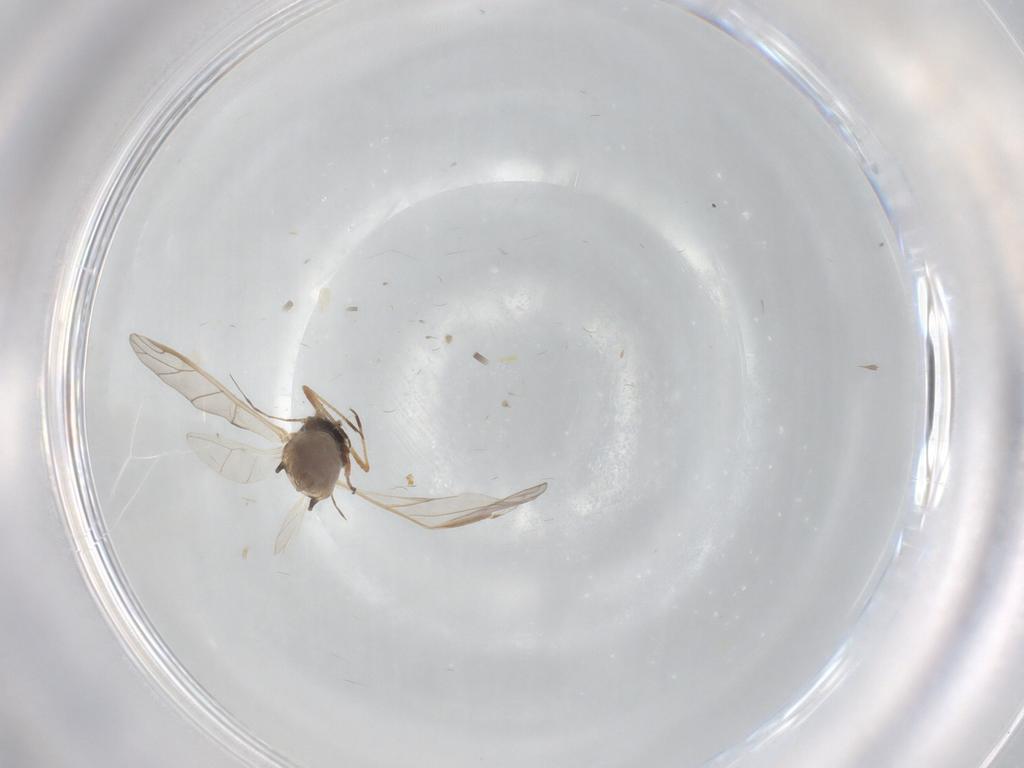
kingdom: Animalia
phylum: Arthropoda
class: Insecta
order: Hemiptera
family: Aphididae
